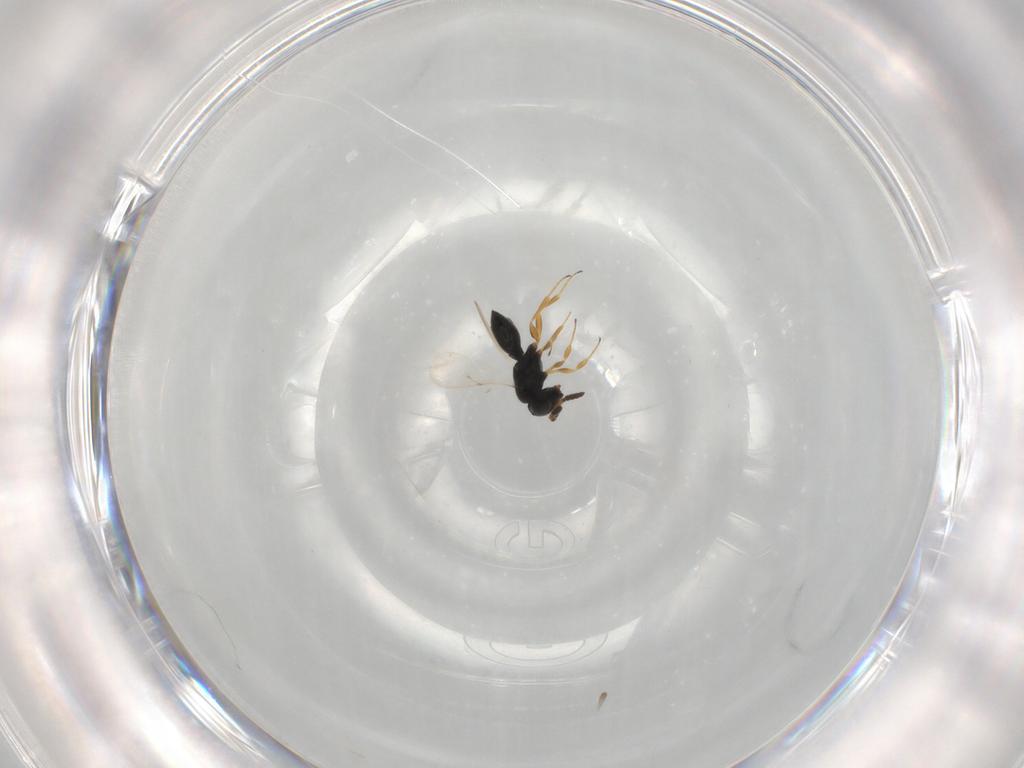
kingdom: Animalia
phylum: Arthropoda
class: Insecta
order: Hymenoptera
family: Scelionidae
